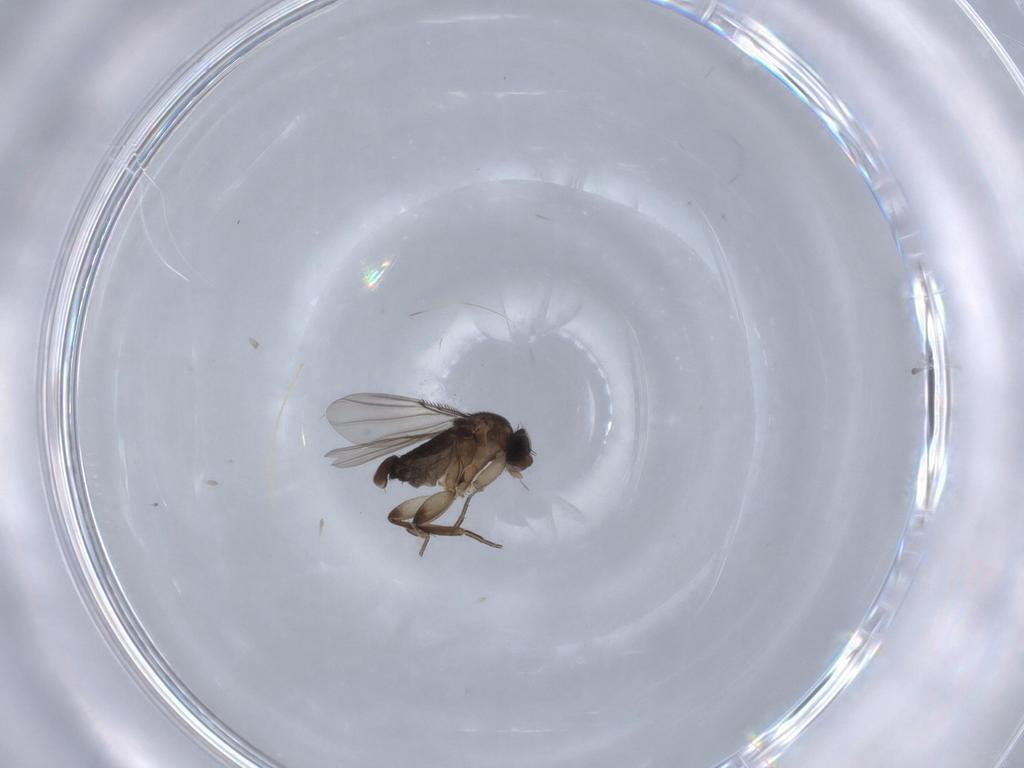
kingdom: Animalia
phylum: Arthropoda
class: Insecta
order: Diptera
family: Phoridae
